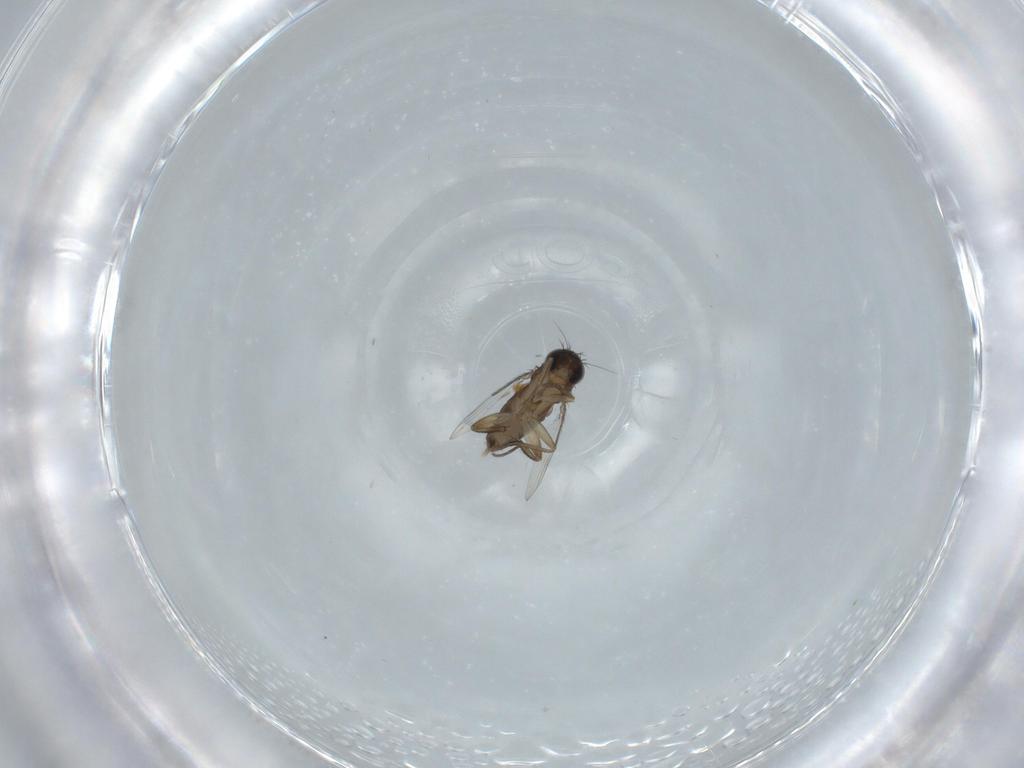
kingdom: Animalia
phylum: Arthropoda
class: Insecta
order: Diptera
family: Phoridae
